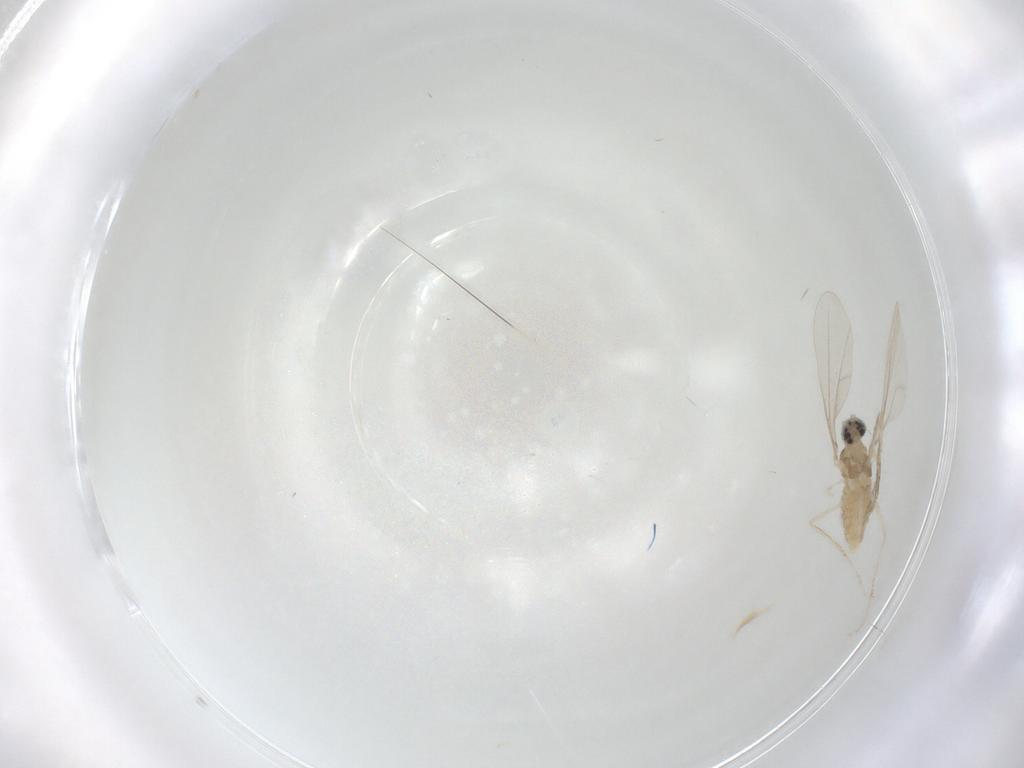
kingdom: Animalia
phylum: Arthropoda
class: Insecta
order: Diptera
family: Cecidomyiidae
